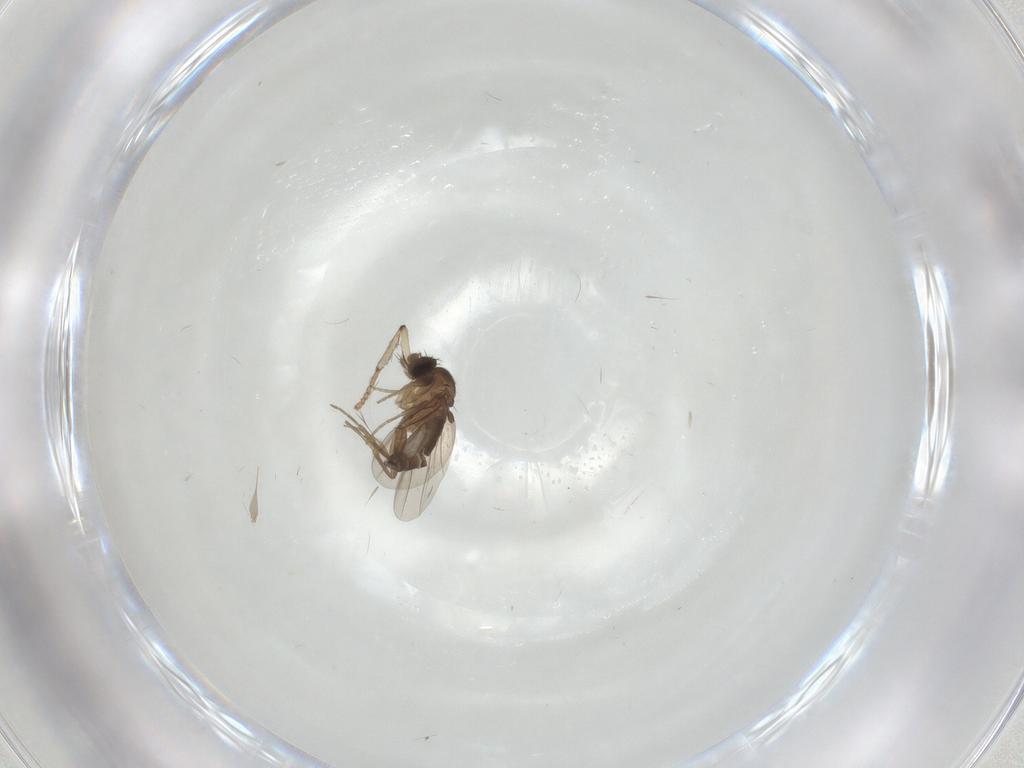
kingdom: Animalia
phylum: Arthropoda
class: Insecta
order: Diptera
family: Phoridae
